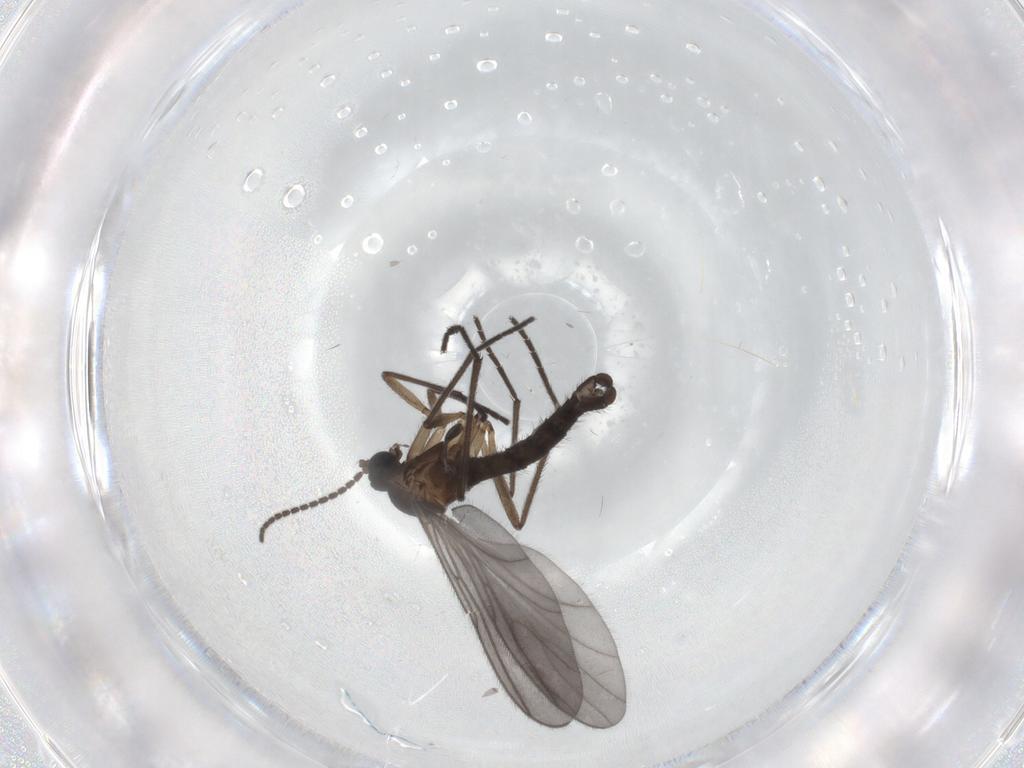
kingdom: Animalia
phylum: Arthropoda
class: Insecta
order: Diptera
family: Sciaridae
